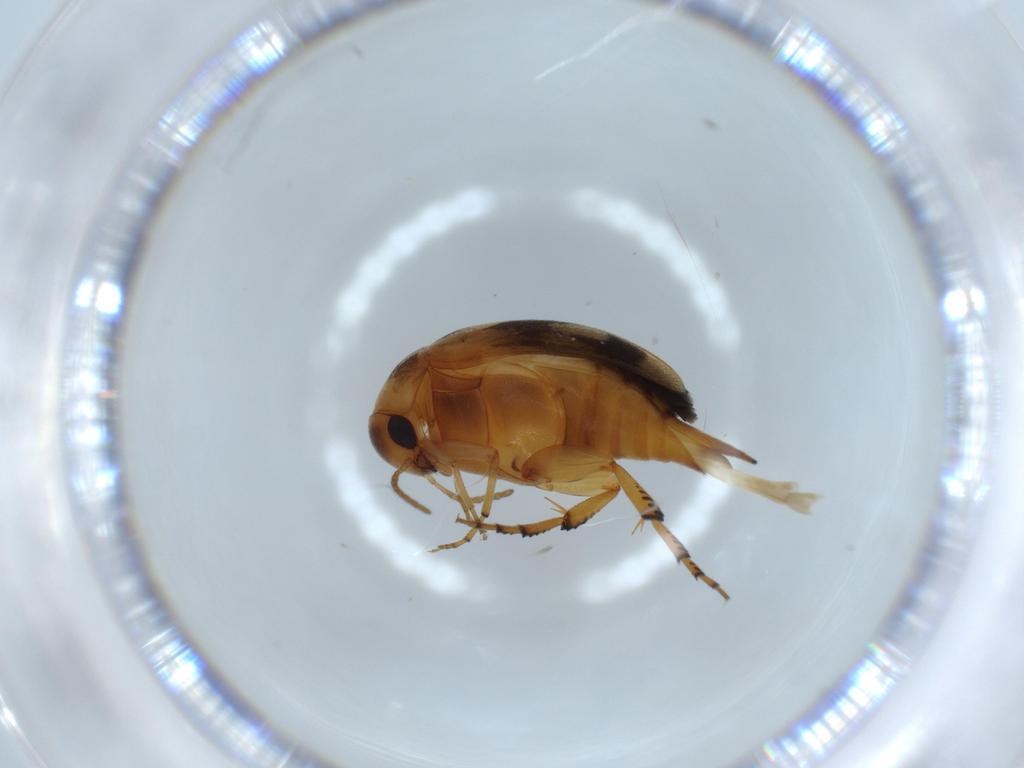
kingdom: Animalia
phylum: Arthropoda
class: Insecta
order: Coleoptera
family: Mordellidae
